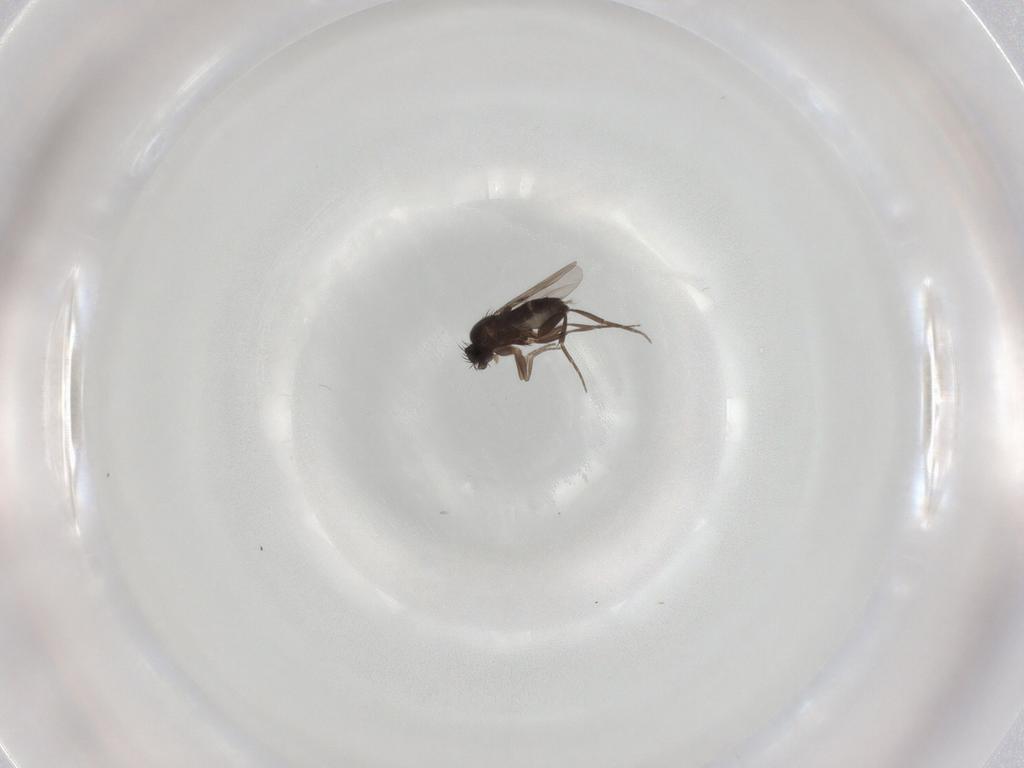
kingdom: Animalia
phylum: Arthropoda
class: Insecta
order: Diptera
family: Phoridae
